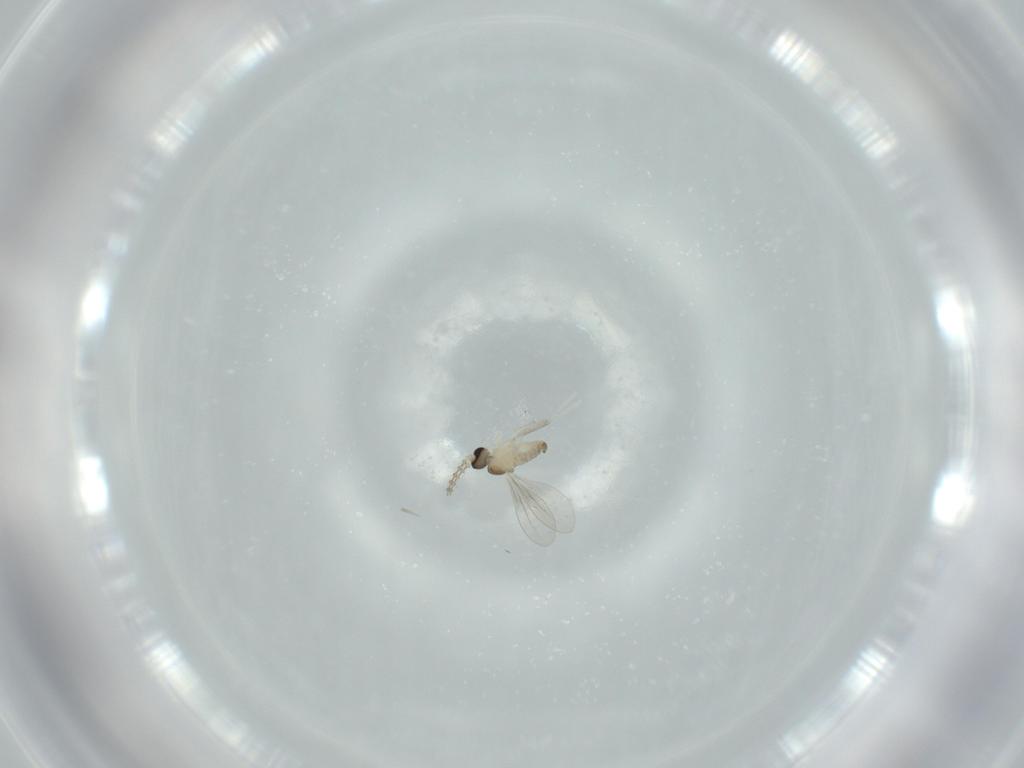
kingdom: Animalia
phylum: Arthropoda
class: Insecta
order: Diptera
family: Cecidomyiidae
